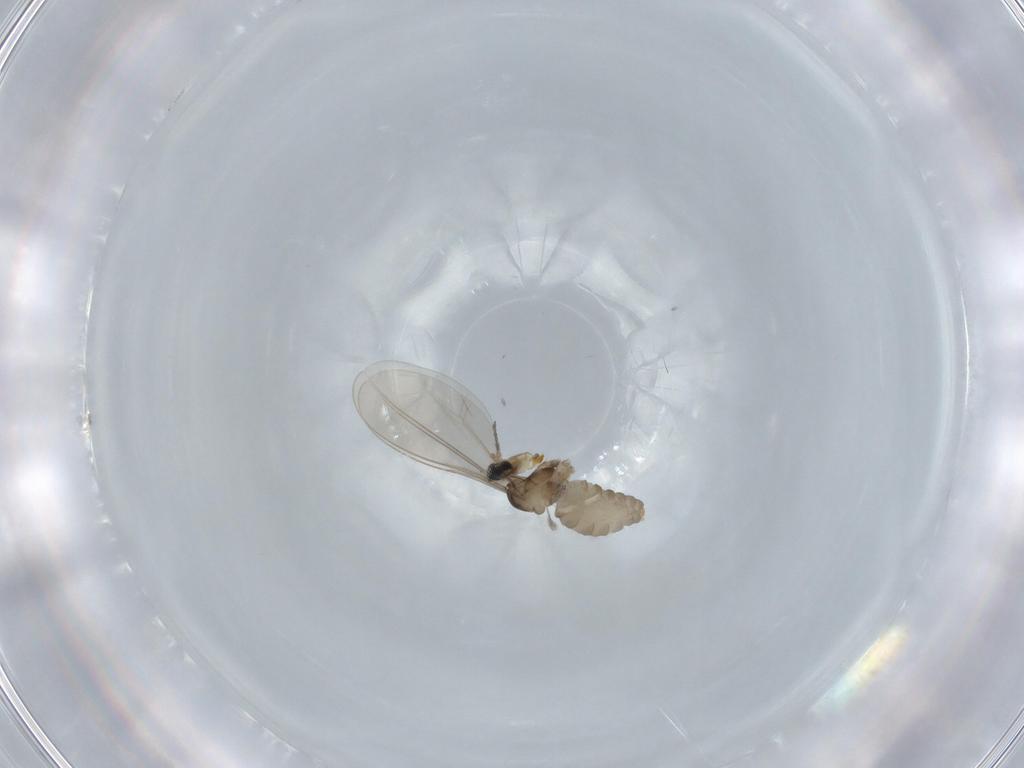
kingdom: Animalia
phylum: Arthropoda
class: Insecta
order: Diptera
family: Cecidomyiidae
